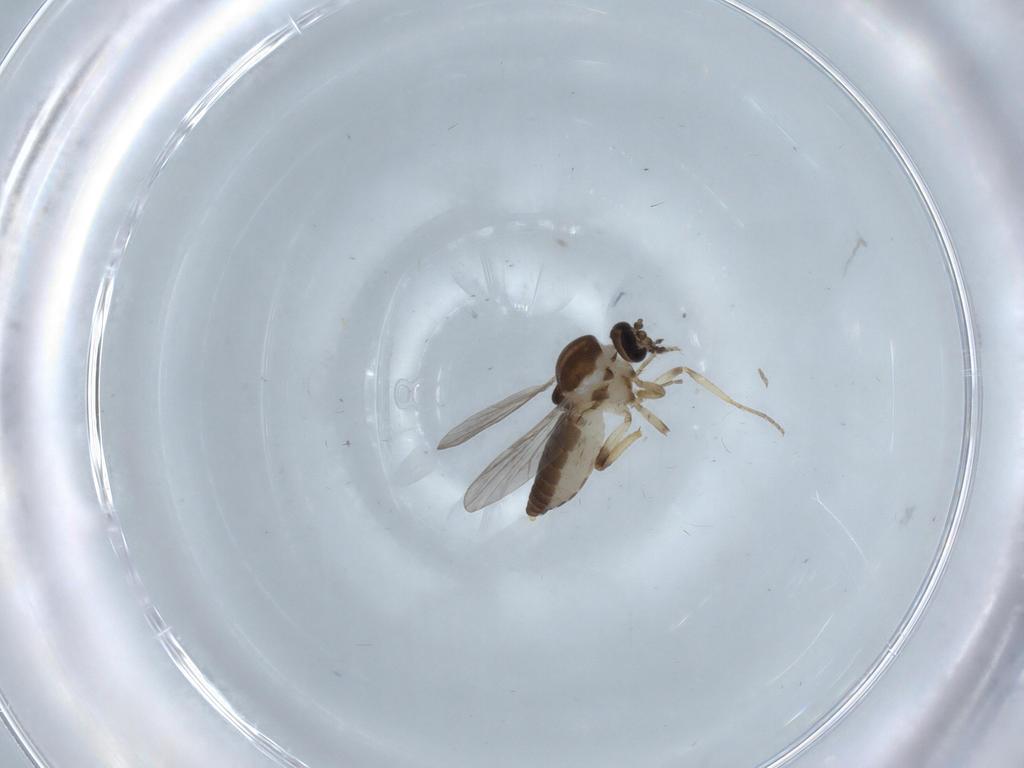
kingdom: Animalia
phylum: Arthropoda
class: Insecta
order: Diptera
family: Ceratopogonidae
